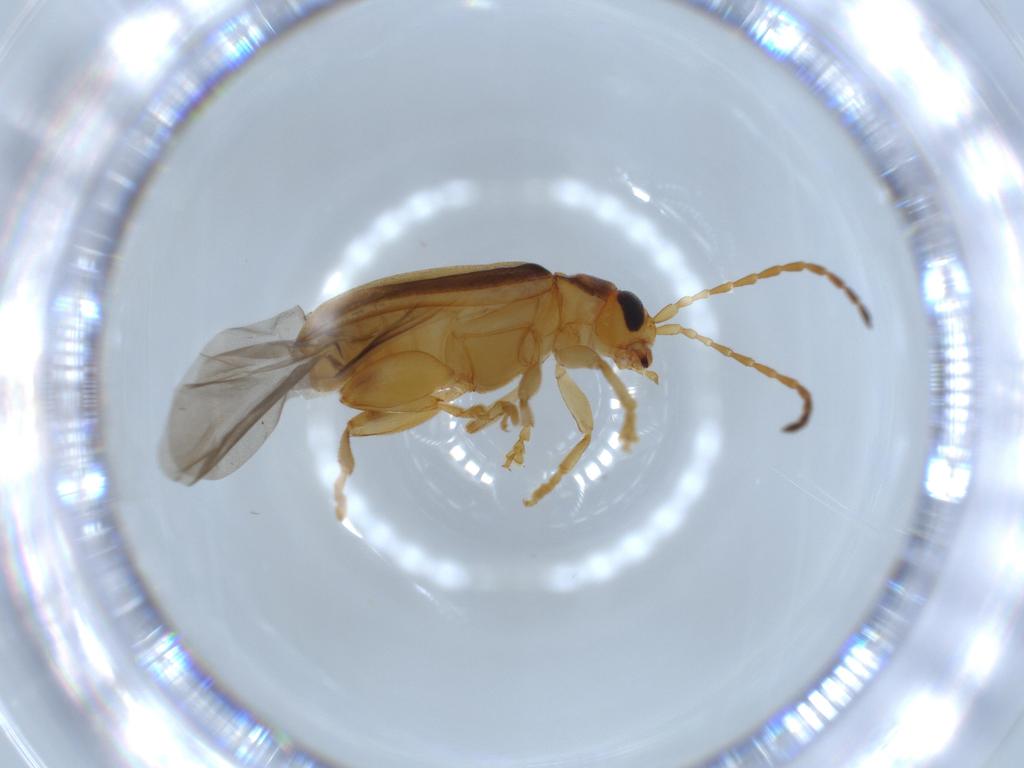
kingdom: Animalia
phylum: Arthropoda
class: Insecta
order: Coleoptera
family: Chrysomelidae
